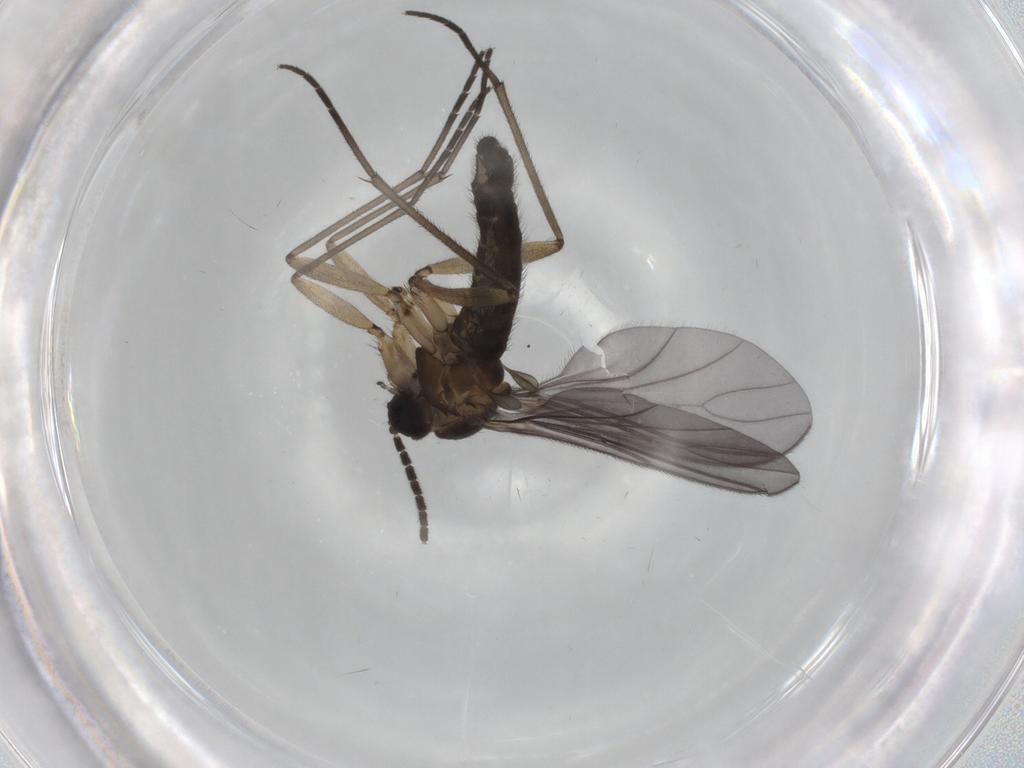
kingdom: Animalia
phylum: Arthropoda
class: Insecta
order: Diptera
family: Sciaridae
